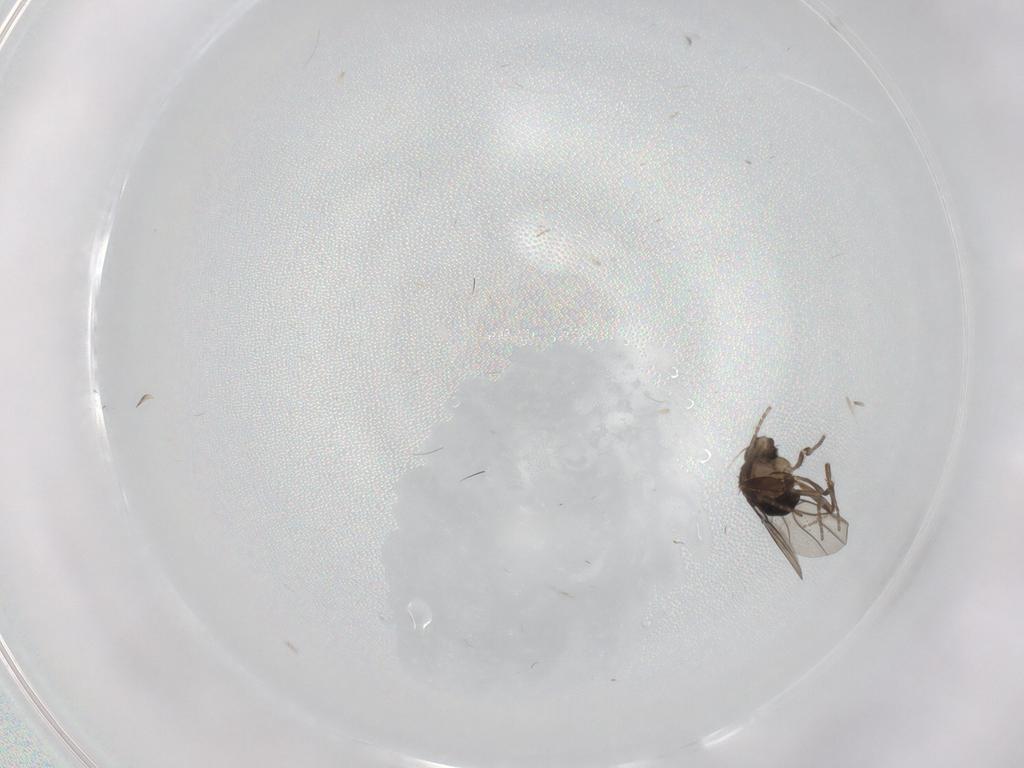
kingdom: Animalia
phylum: Arthropoda
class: Insecta
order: Diptera
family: Phoridae
